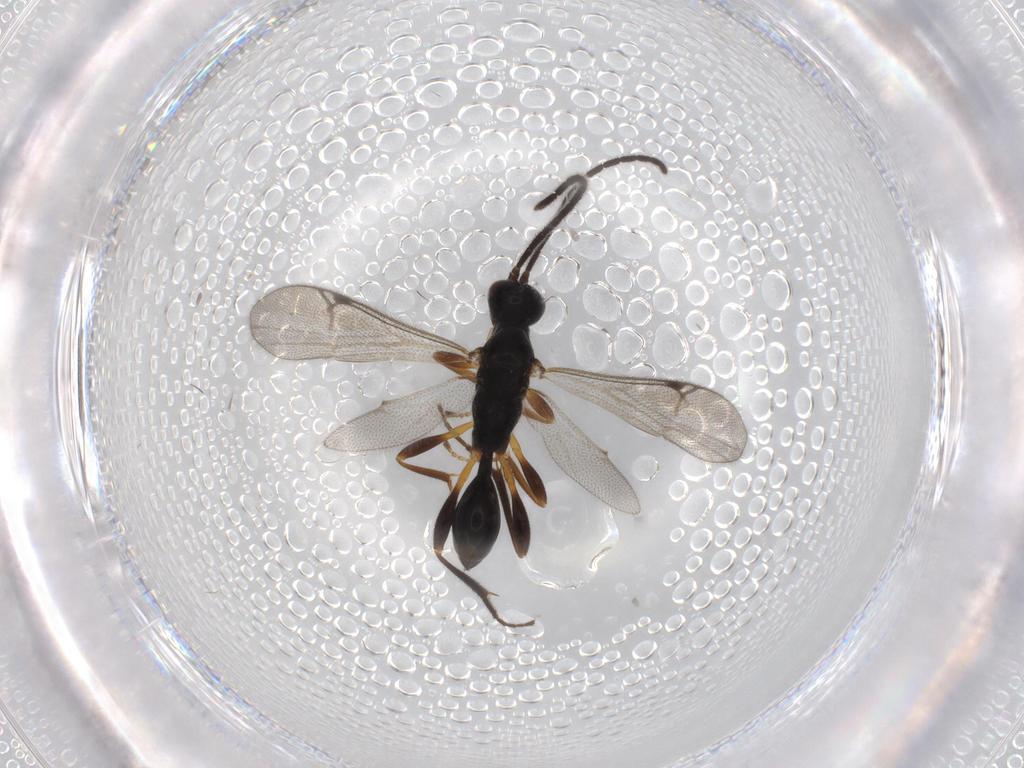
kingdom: Animalia
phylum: Arthropoda
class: Insecta
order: Hymenoptera
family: Proctotrupidae
